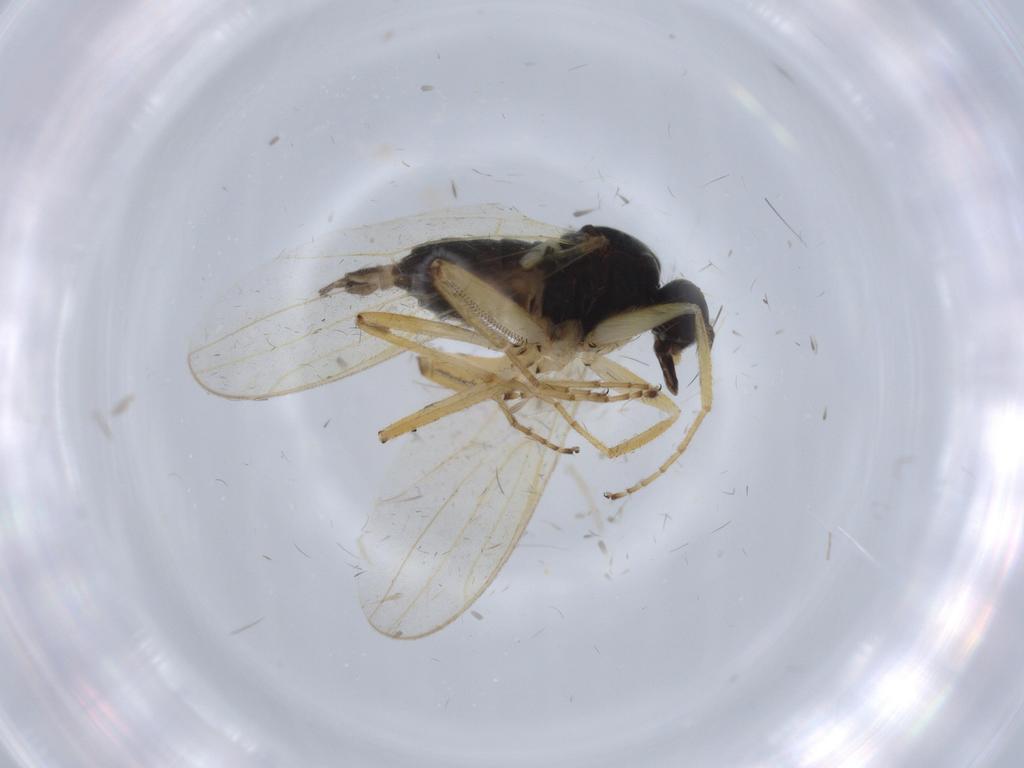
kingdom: Animalia
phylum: Arthropoda
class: Insecta
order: Diptera
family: Hybotidae
